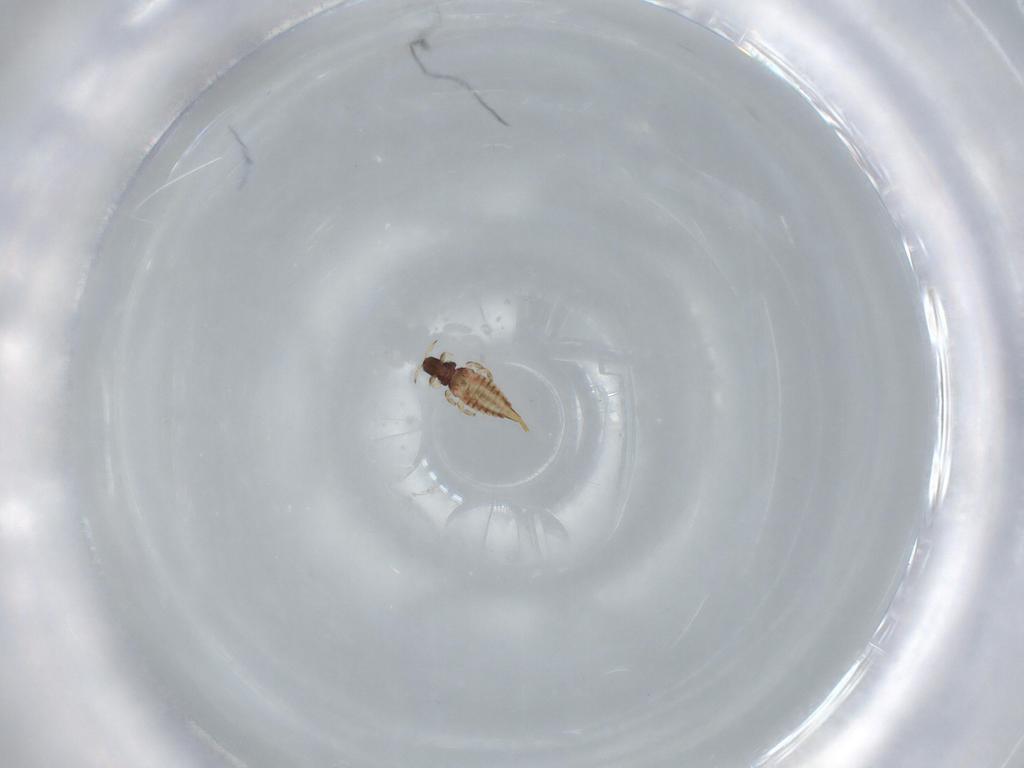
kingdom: Animalia
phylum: Arthropoda
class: Insecta
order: Thysanoptera
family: Phlaeothripidae
